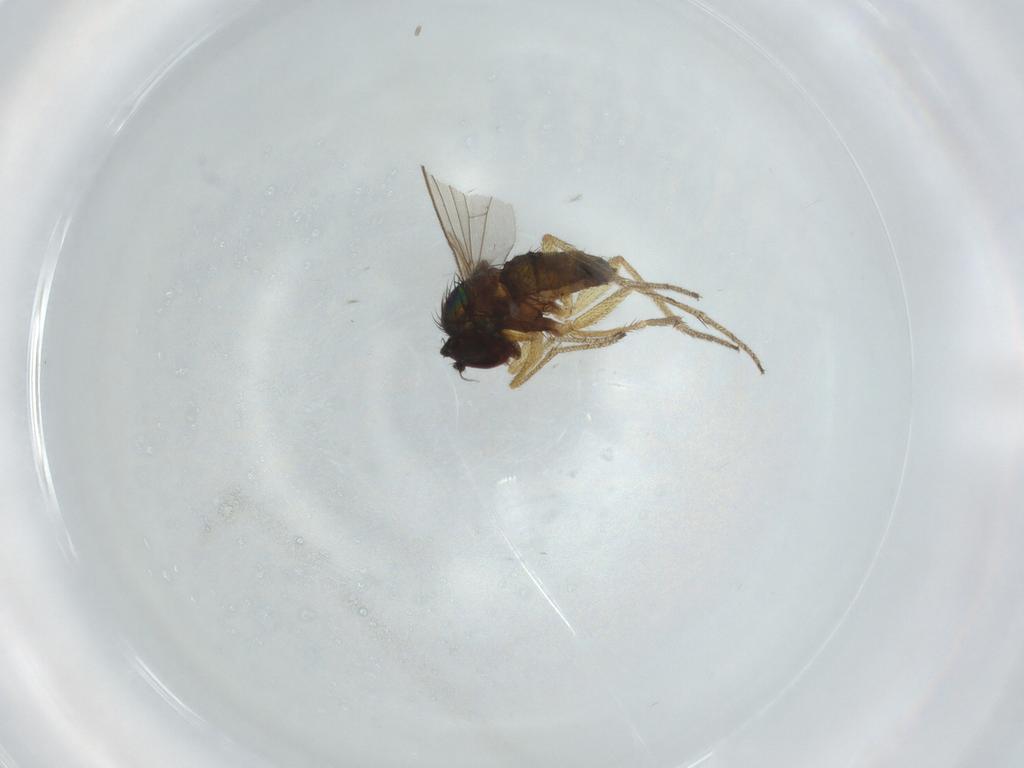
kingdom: Animalia
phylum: Arthropoda
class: Insecta
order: Diptera
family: Dolichopodidae
